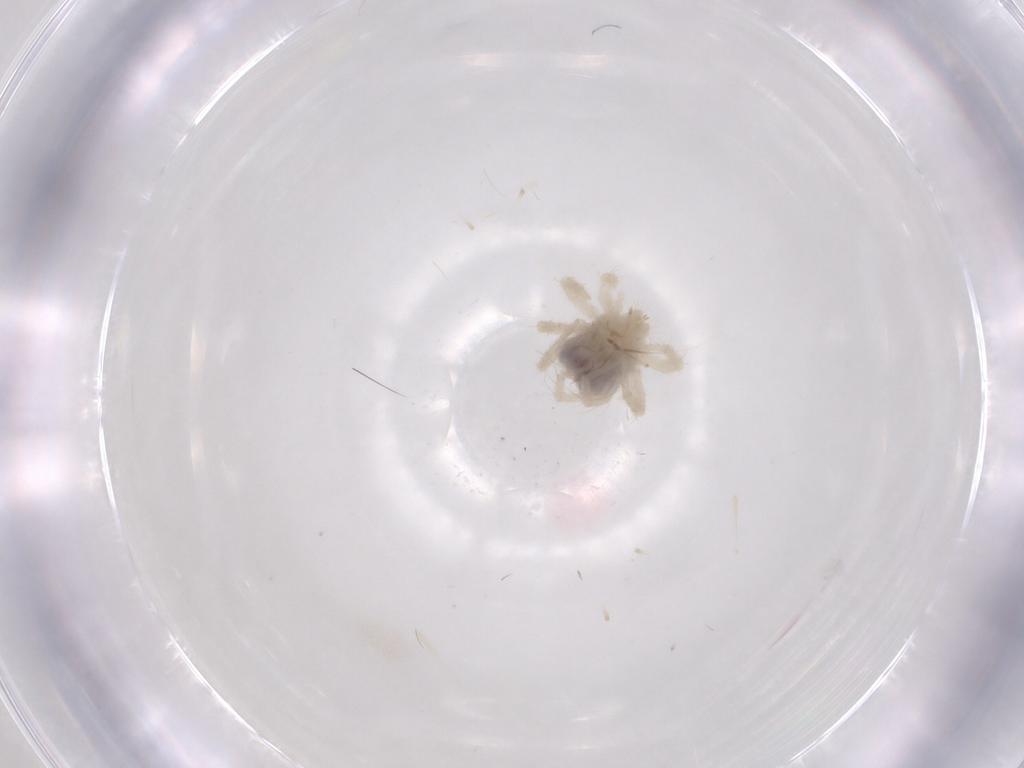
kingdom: Animalia
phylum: Arthropoda
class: Arachnida
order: Trombidiformes
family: Anystidae
